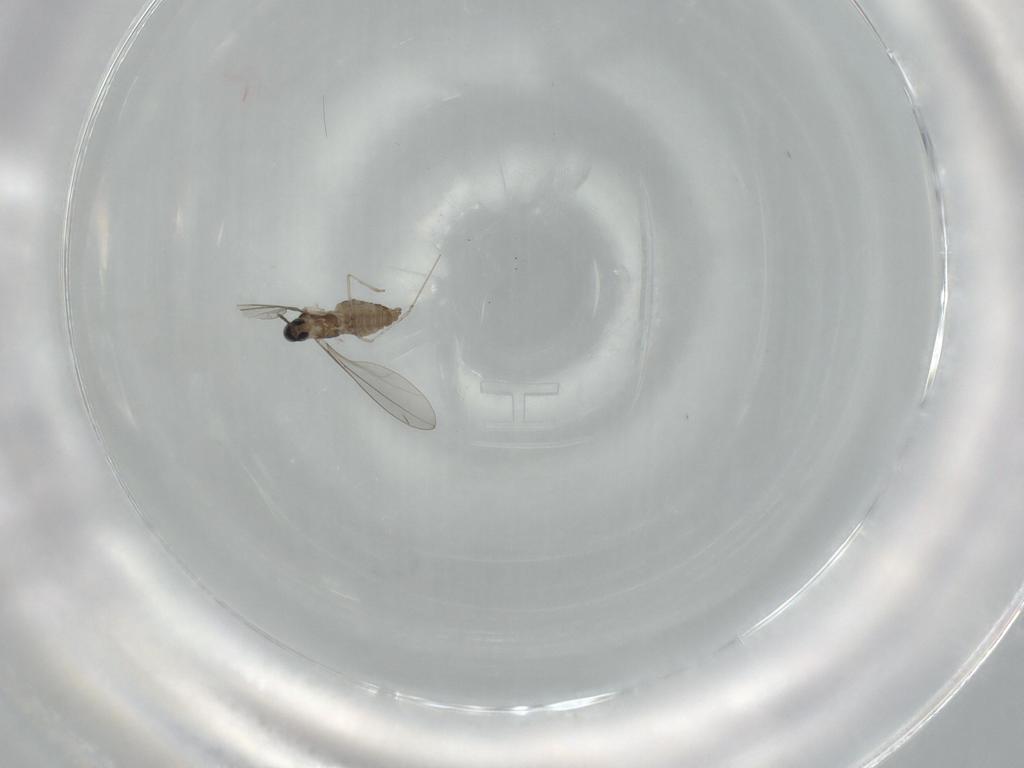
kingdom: Animalia
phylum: Arthropoda
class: Insecta
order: Diptera
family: Cecidomyiidae
